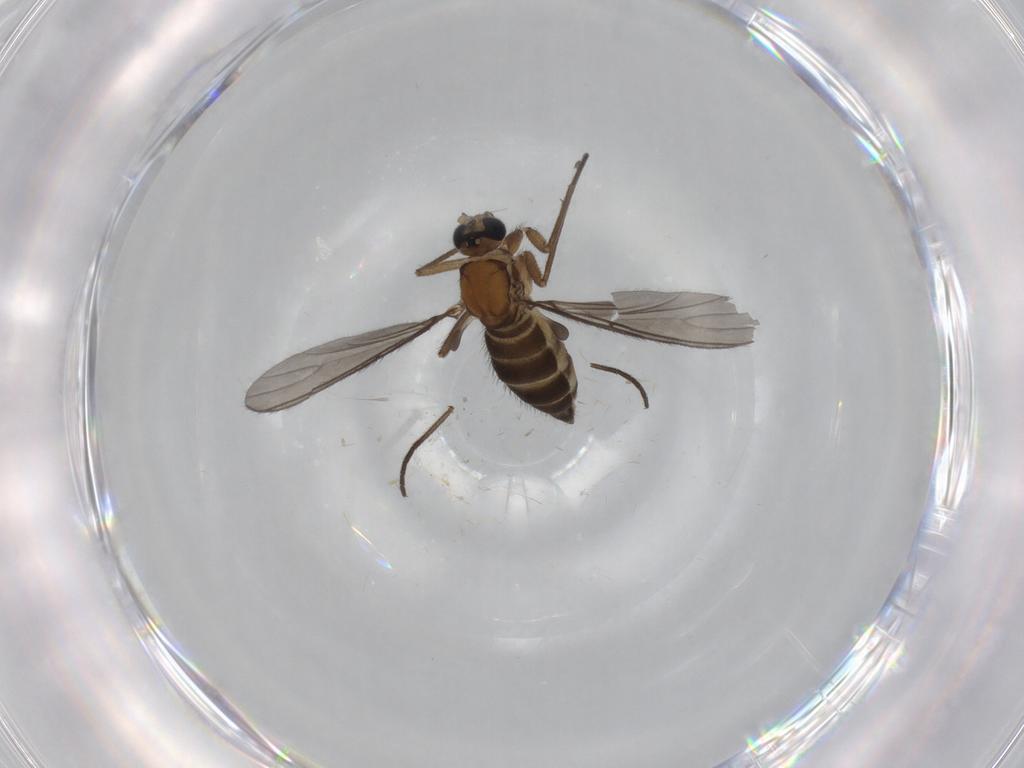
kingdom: Animalia
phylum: Arthropoda
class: Insecta
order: Diptera
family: Sciaridae
